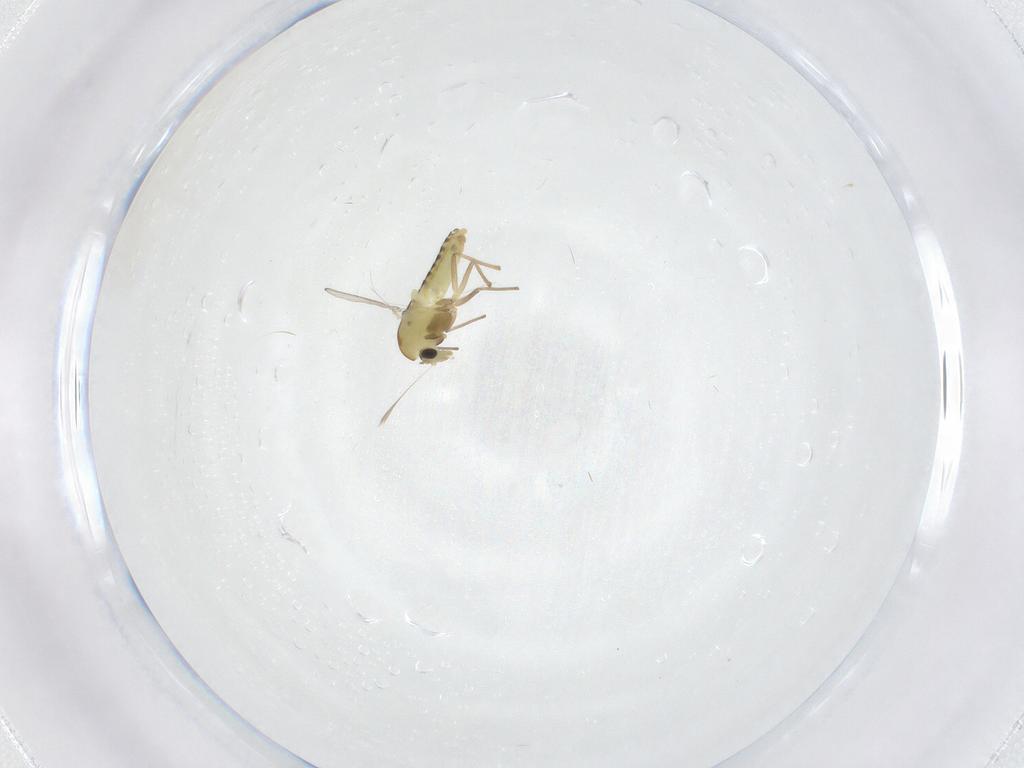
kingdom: Animalia
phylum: Arthropoda
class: Insecta
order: Diptera
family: Chironomidae
